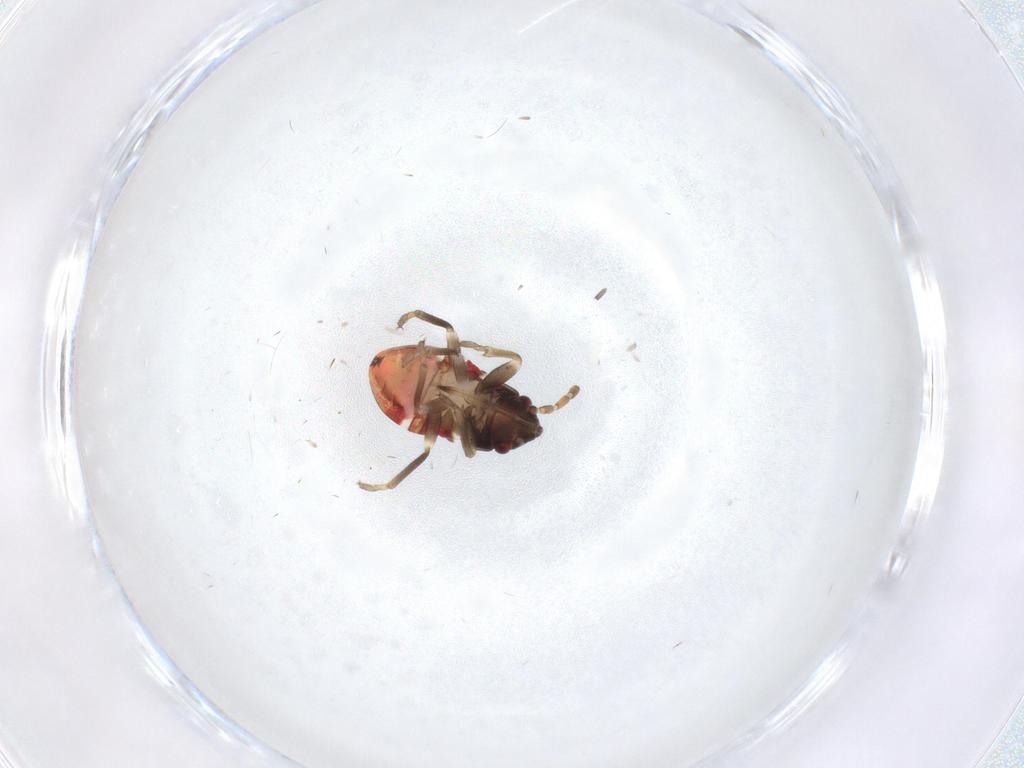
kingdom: Animalia
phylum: Arthropoda
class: Insecta
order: Hemiptera
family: Rhyparochromidae
